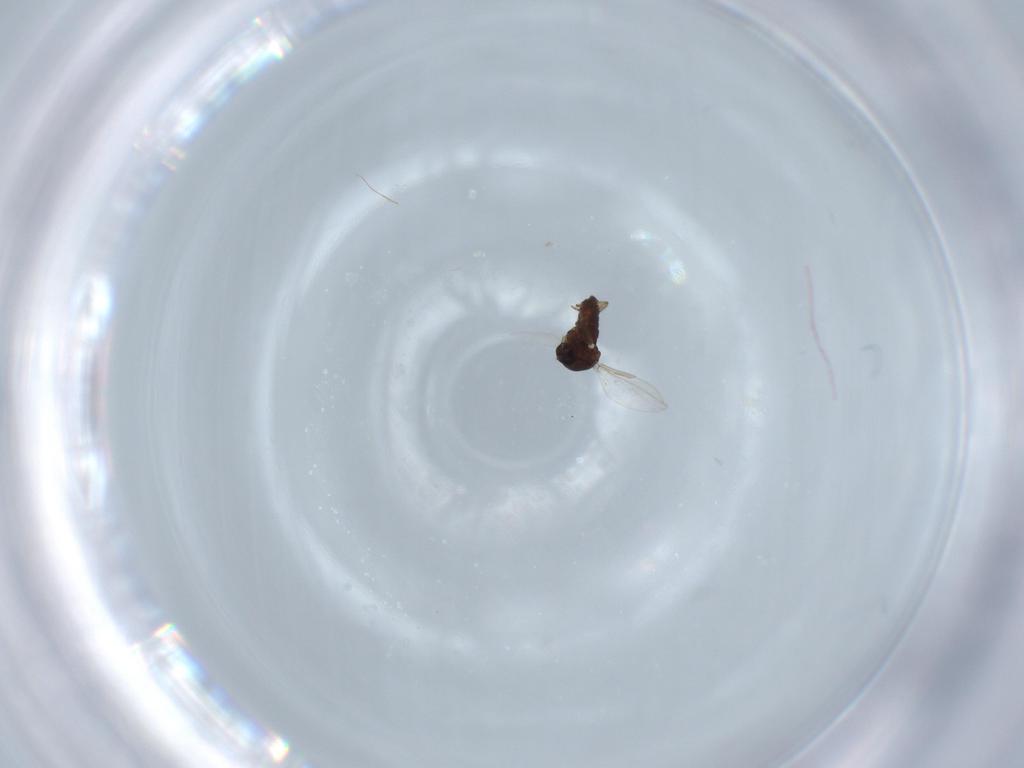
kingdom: Animalia
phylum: Arthropoda
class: Insecta
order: Diptera
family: Ceratopogonidae
